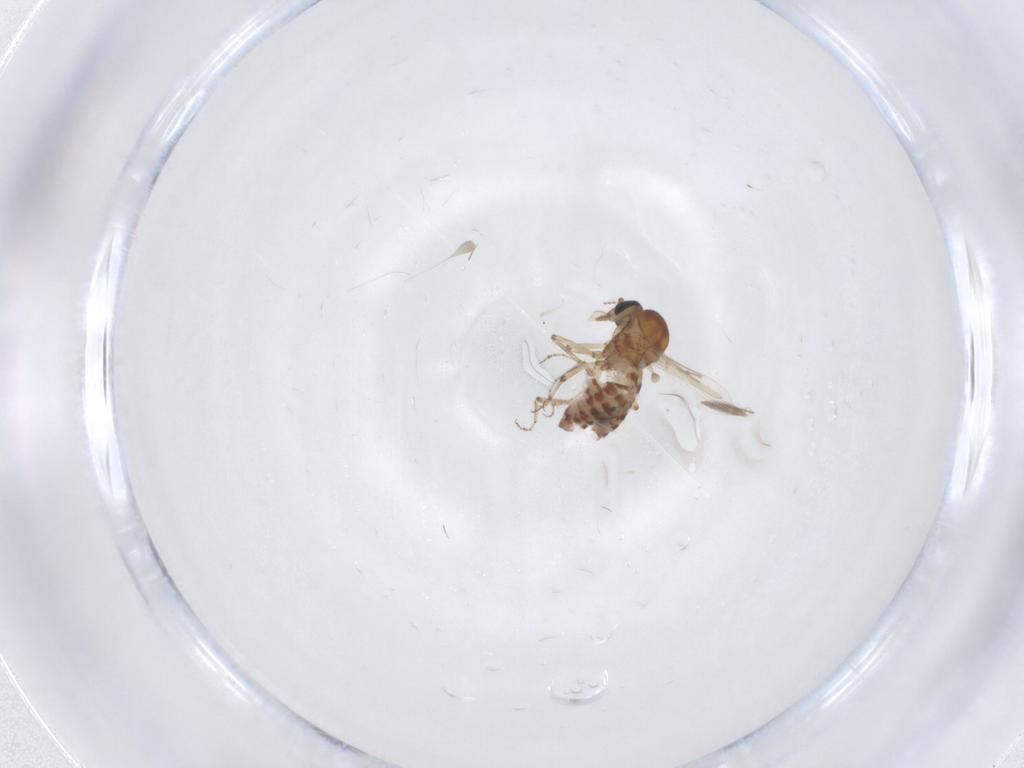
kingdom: Animalia
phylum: Arthropoda
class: Insecta
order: Diptera
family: Ceratopogonidae
